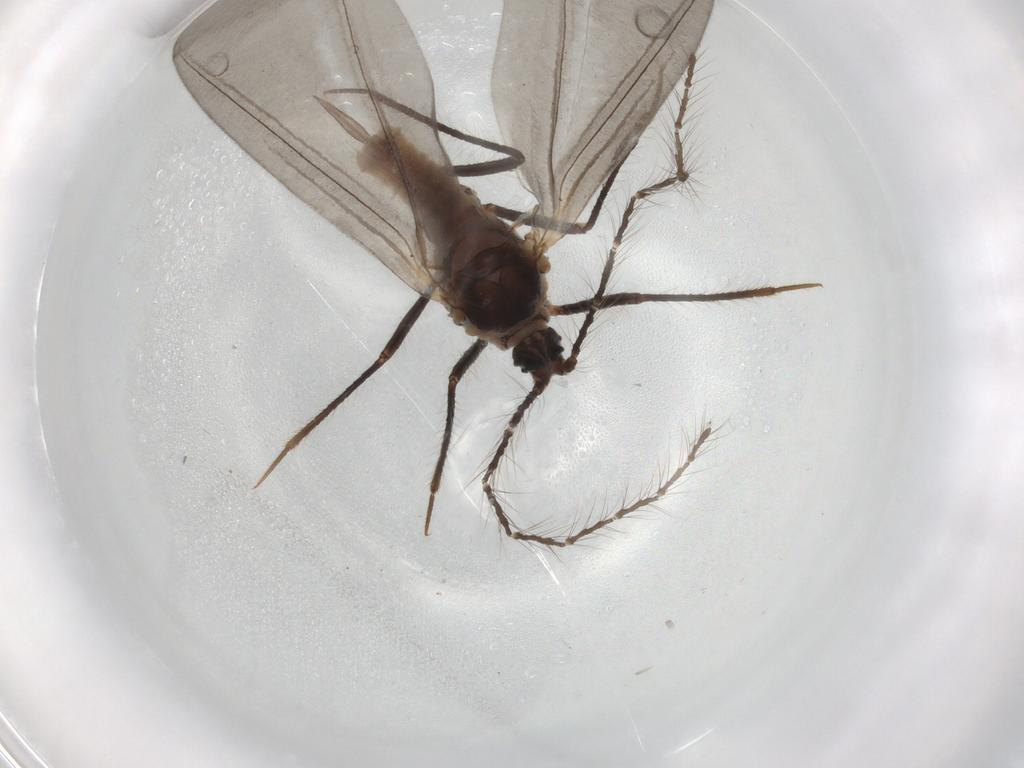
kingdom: Animalia
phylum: Arthropoda
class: Insecta
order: Hemiptera
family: Putoidae
